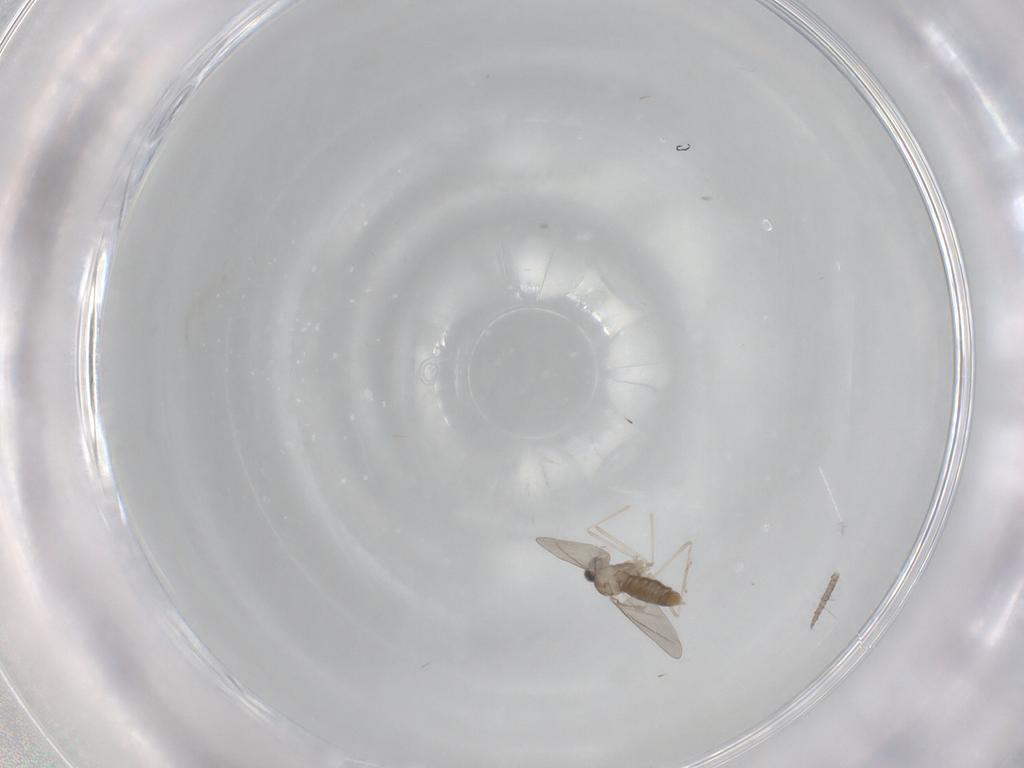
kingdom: Animalia
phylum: Arthropoda
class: Insecta
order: Diptera
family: Cecidomyiidae
